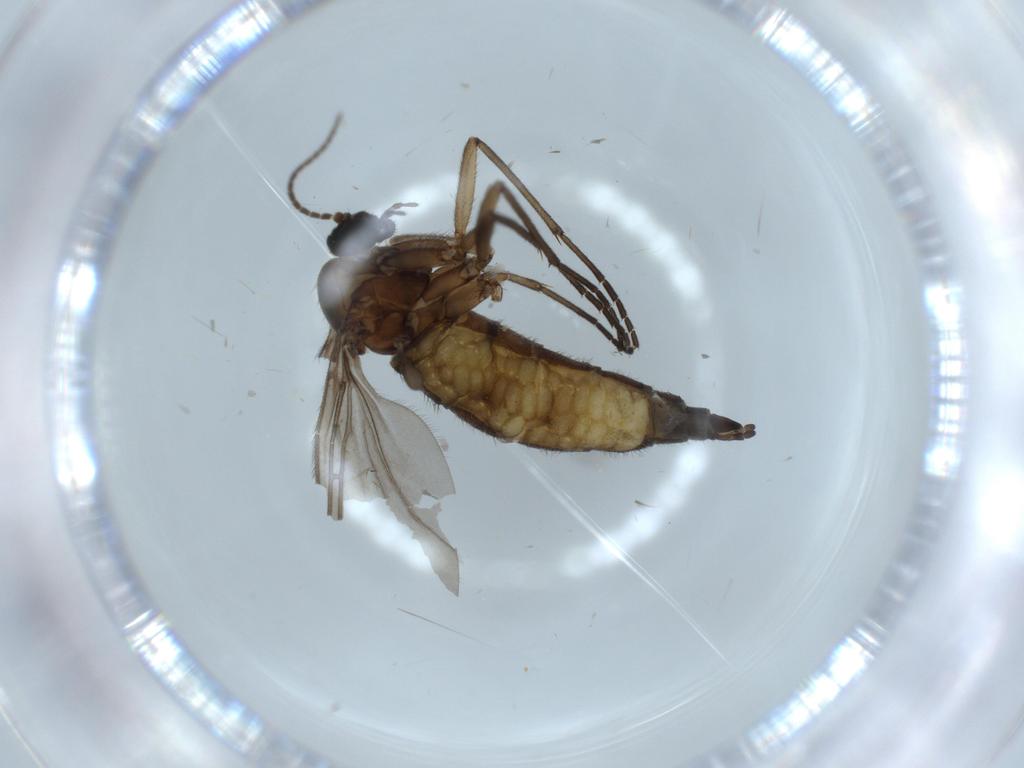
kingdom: Animalia
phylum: Arthropoda
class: Insecta
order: Diptera
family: Sciaridae
